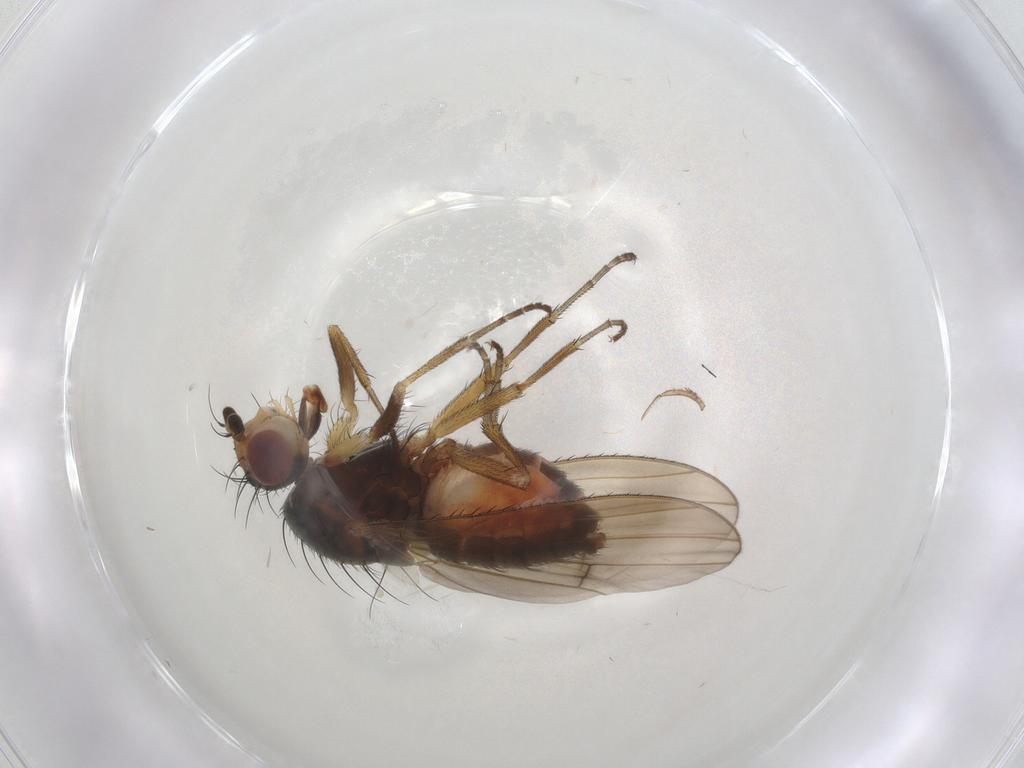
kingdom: Animalia
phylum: Arthropoda
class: Insecta
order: Diptera
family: Heleomyzidae
